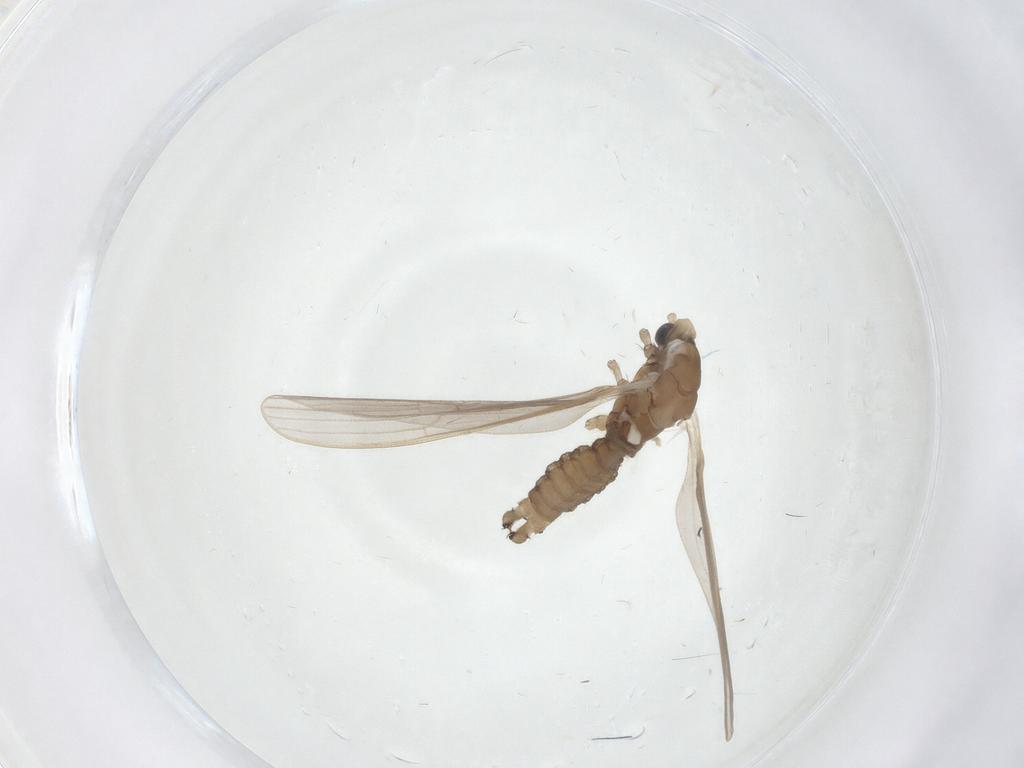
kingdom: Animalia
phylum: Arthropoda
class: Insecta
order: Diptera
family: Limoniidae
